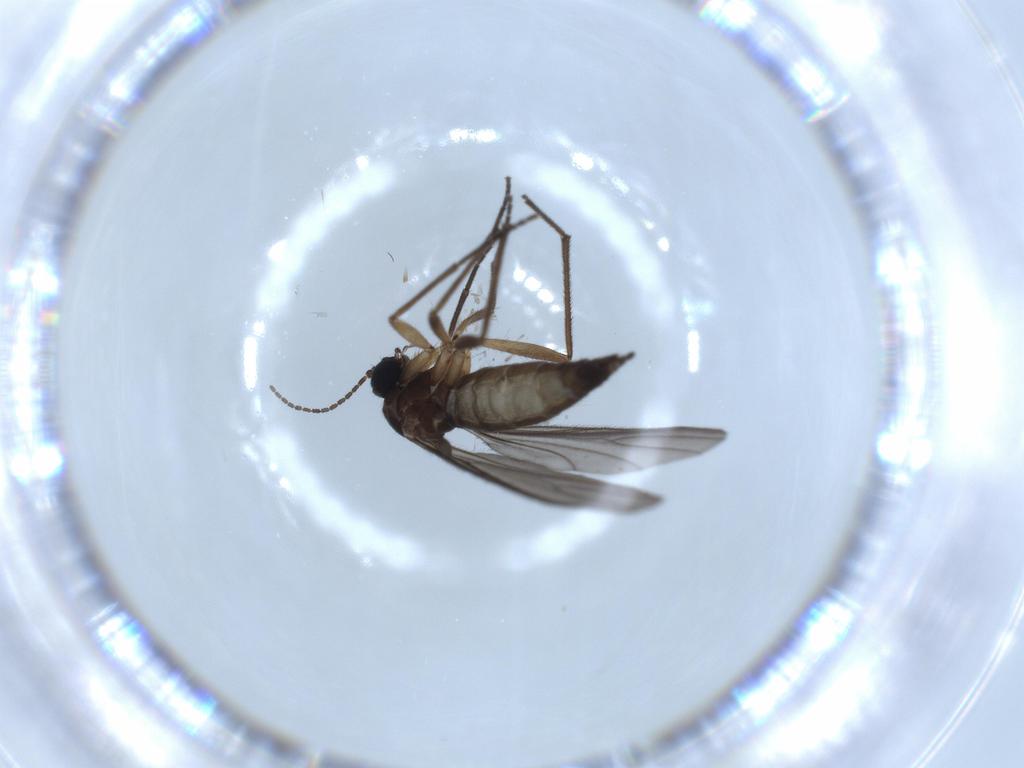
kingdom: Animalia
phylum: Arthropoda
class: Insecta
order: Diptera
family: Sciaridae
